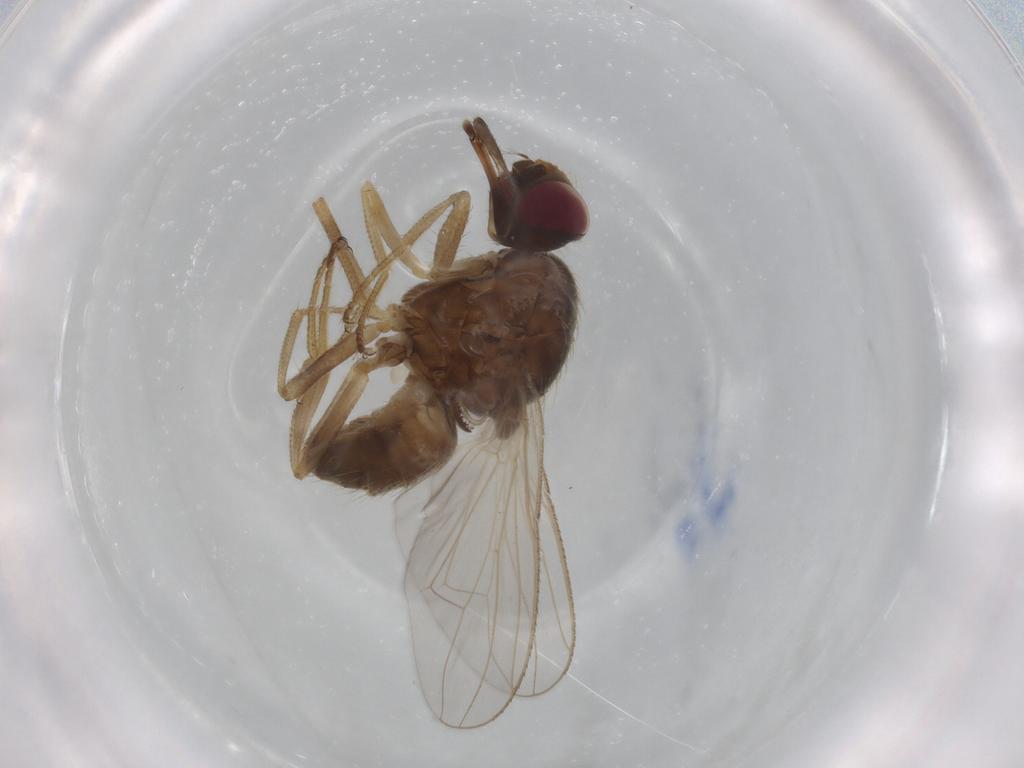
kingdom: Animalia
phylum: Arthropoda
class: Insecta
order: Diptera
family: Muscidae
